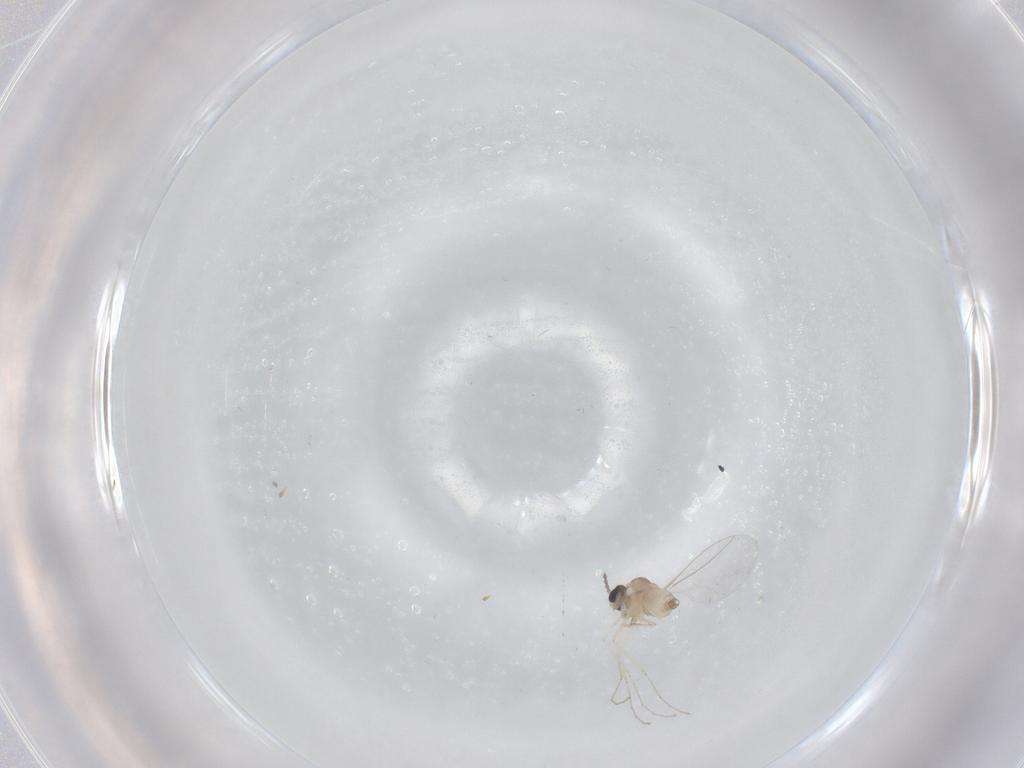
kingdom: Animalia
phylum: Arthropoda
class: Insecta
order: Diptera
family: Cecidomyiidae
